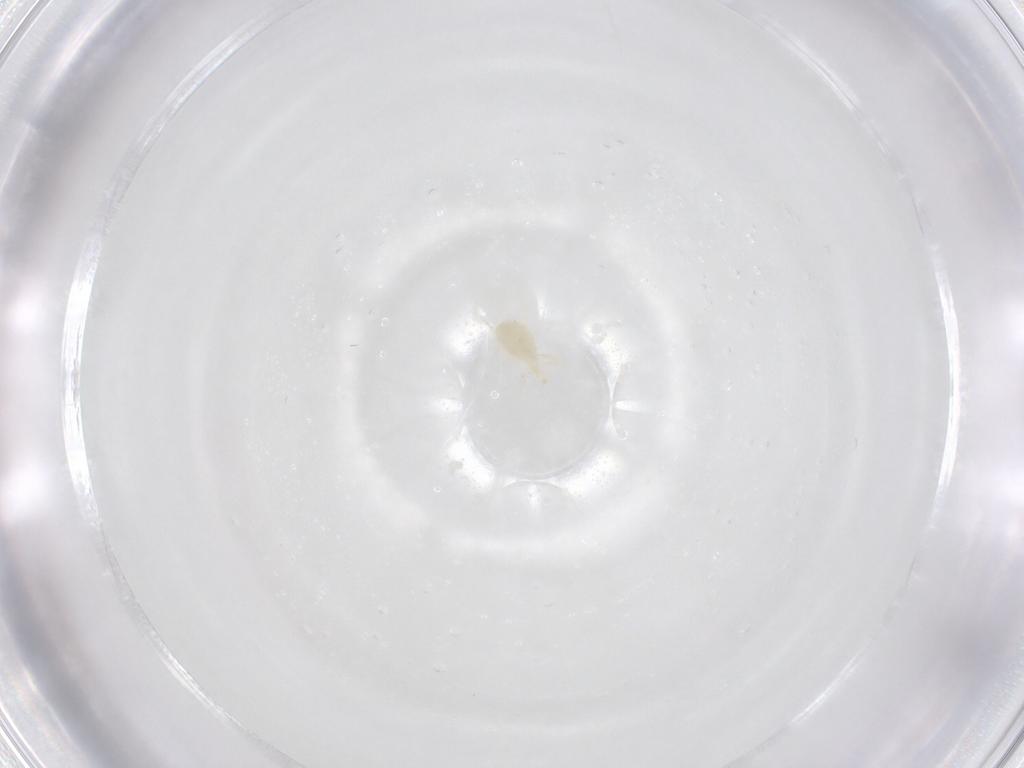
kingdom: Animalia
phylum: Arthropoda
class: Arachnida
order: Mesostigmata
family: Phytoseiidae
